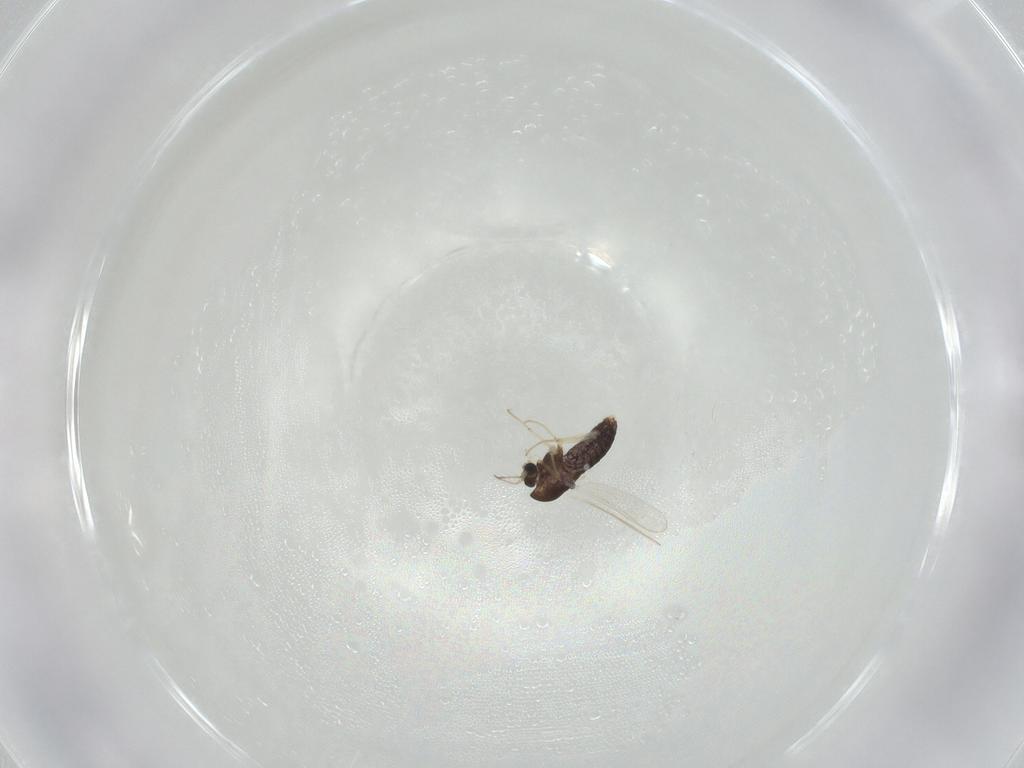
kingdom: Animalia
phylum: Arthropoda
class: Insecta
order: Diptera
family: Chironomidae
